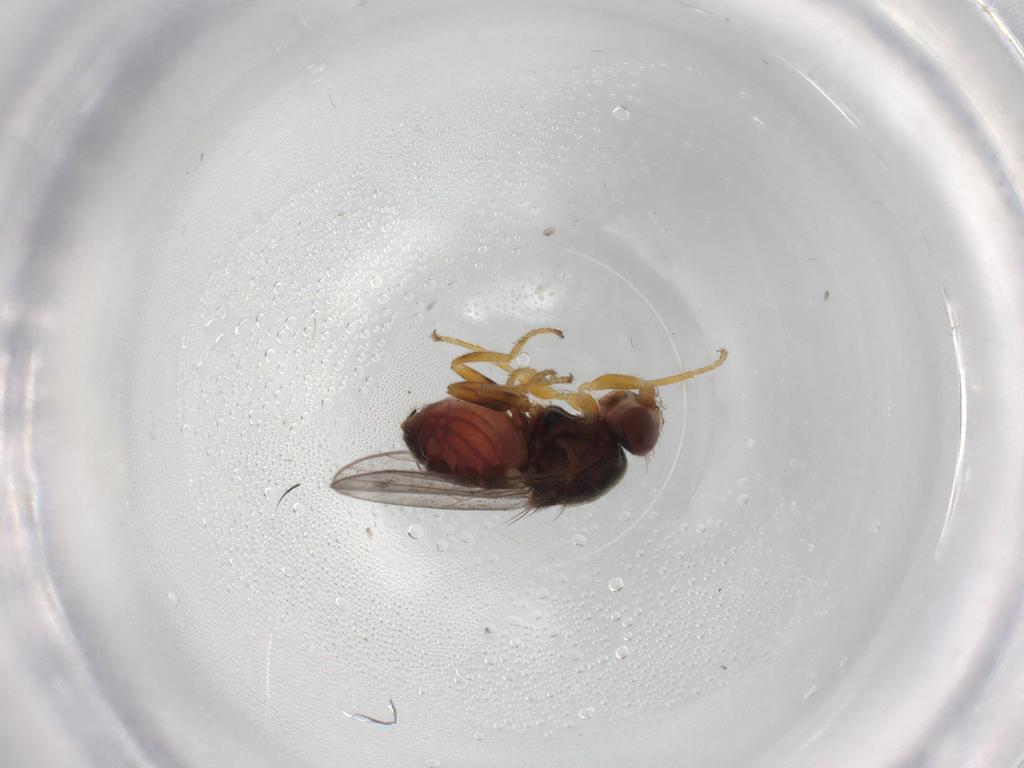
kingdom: Animalia
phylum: Arthropoda
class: Insecta
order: Diptera
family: Chloropidae
